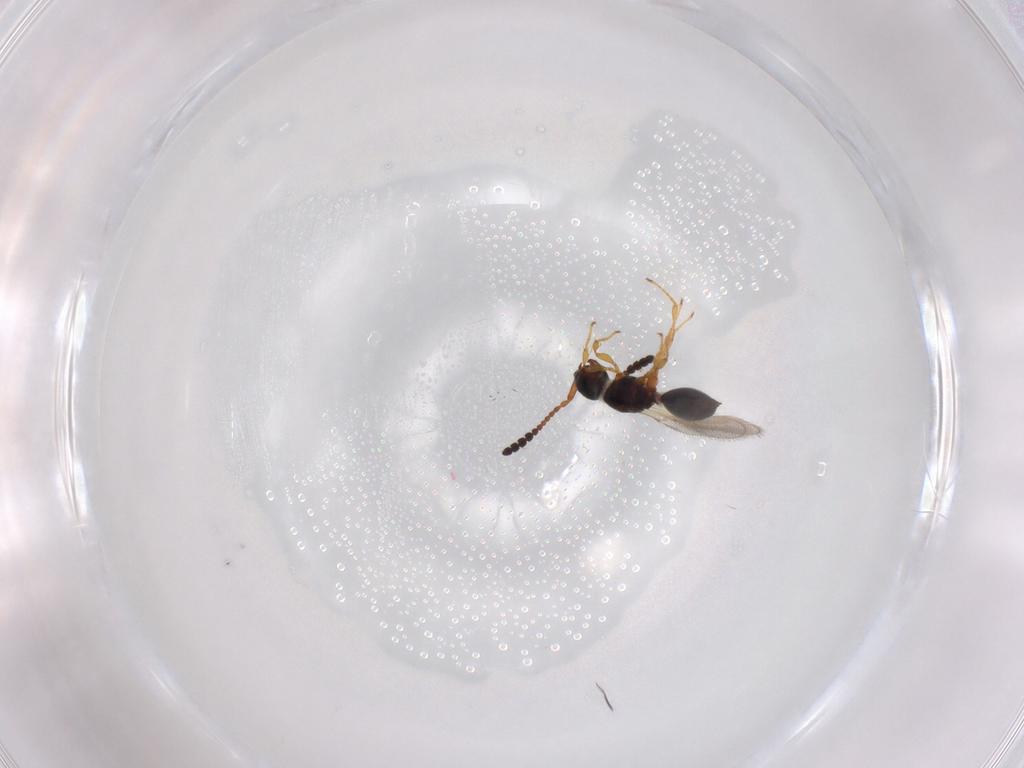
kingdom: Animalia
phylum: Arthropoda
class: Insecta
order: Hymenoptera
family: Diapriidae
